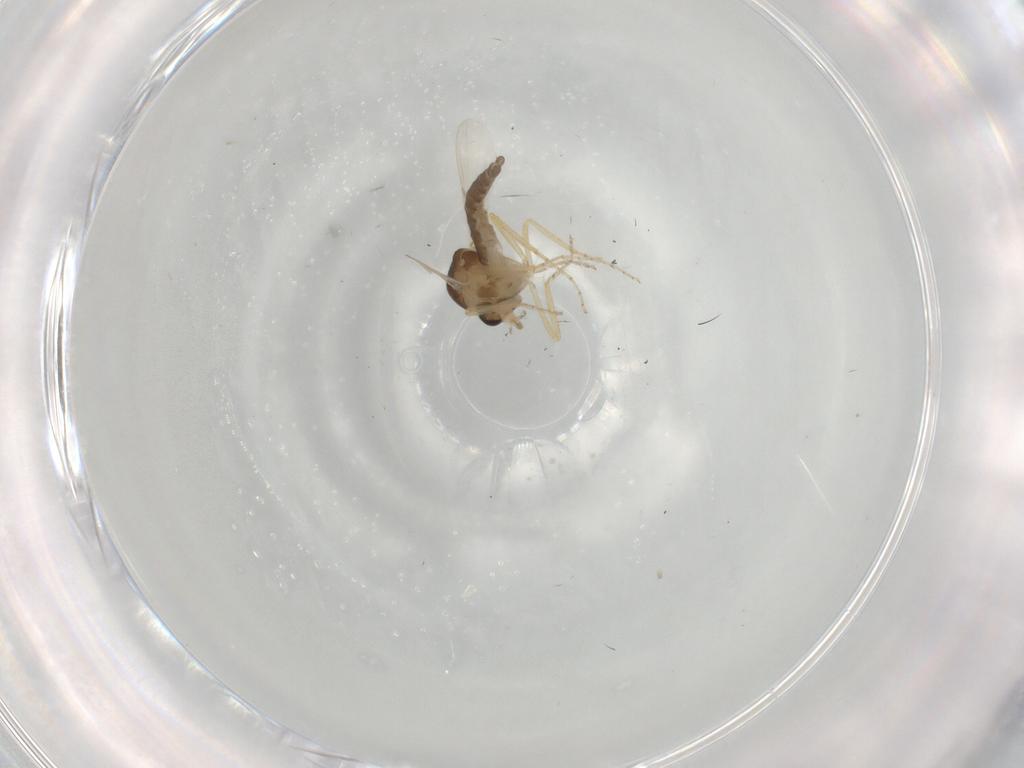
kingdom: Animalia
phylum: Arthropoda
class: Insecta
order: Diptera
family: Ceratopogonidae
